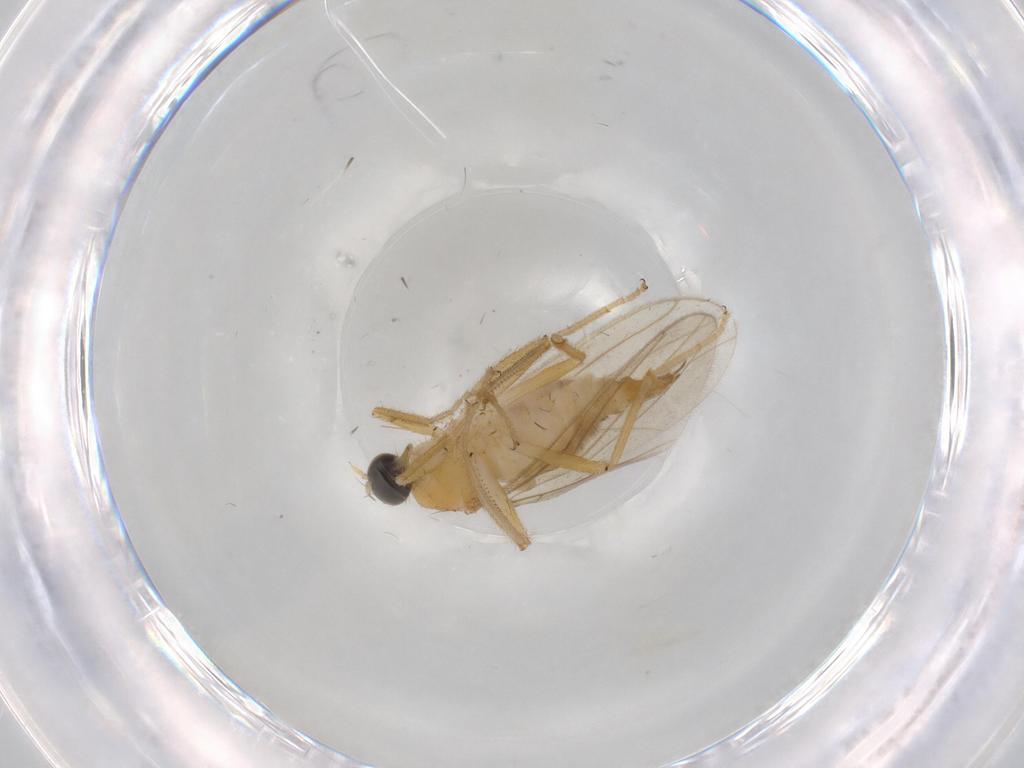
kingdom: Animalia
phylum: Arthropoda
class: Insecta
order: Diptera
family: Hybotidae
